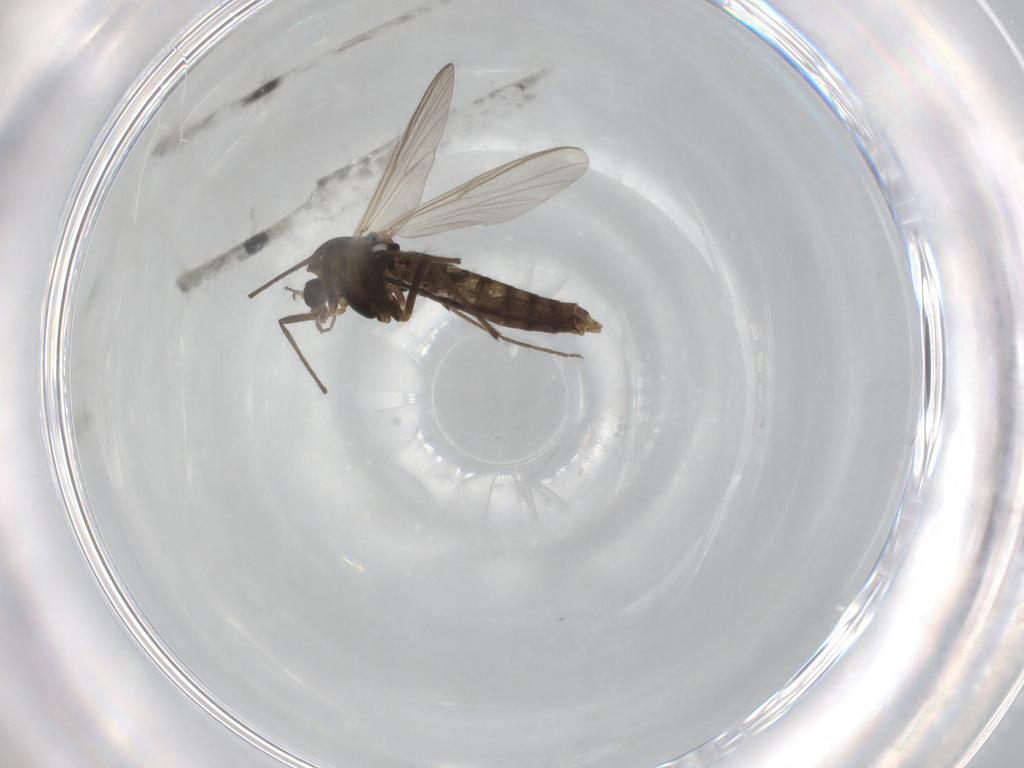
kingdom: Animalia
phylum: Arthropoda
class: Insecta
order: Diptera
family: Chironomidae
